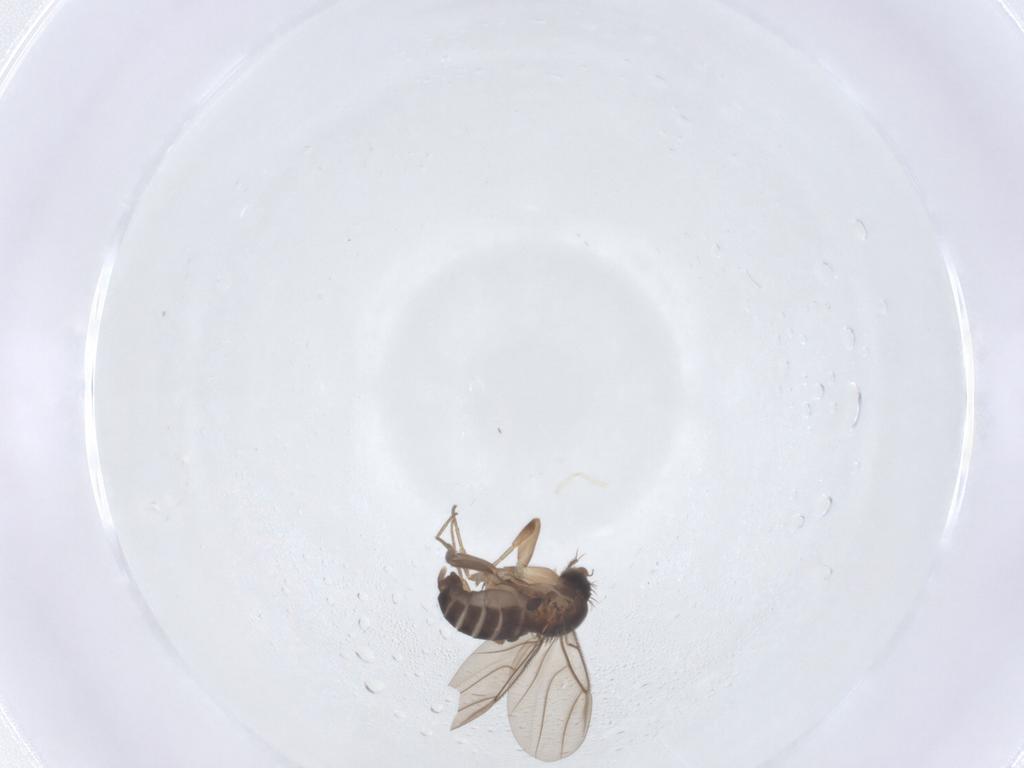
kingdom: Animalia
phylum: Arthropoda
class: Insecta
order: Diptera
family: Phoridae
